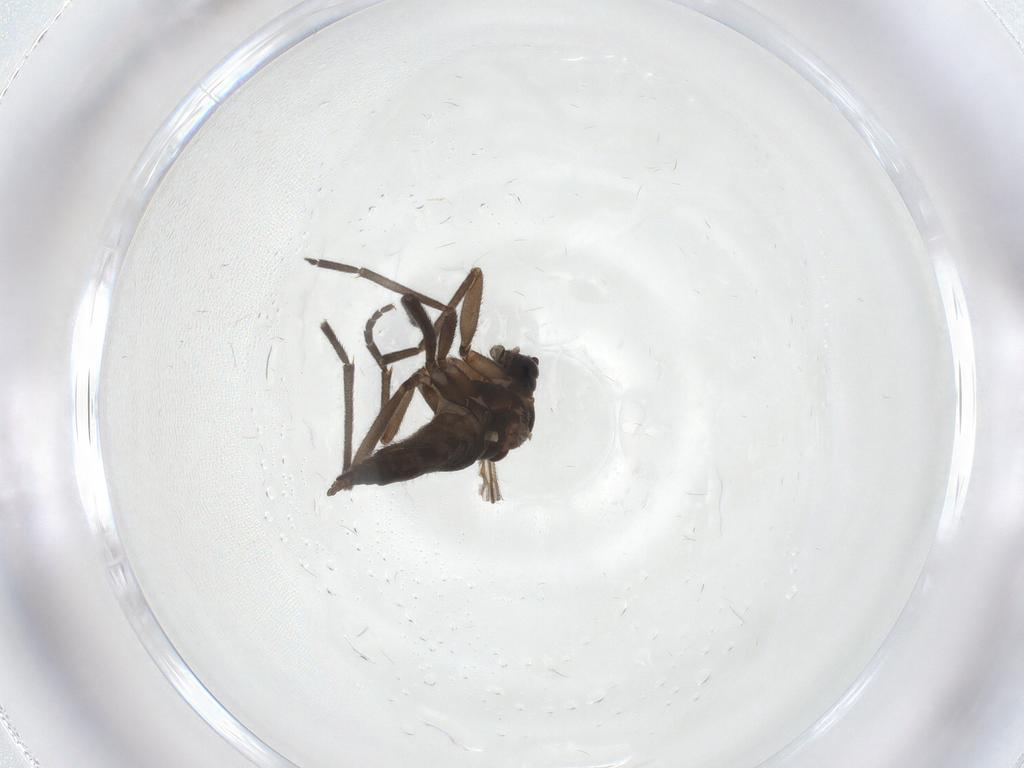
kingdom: Animalia
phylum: Arthropoda
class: Insecta
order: Diptera
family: Sciaridae
